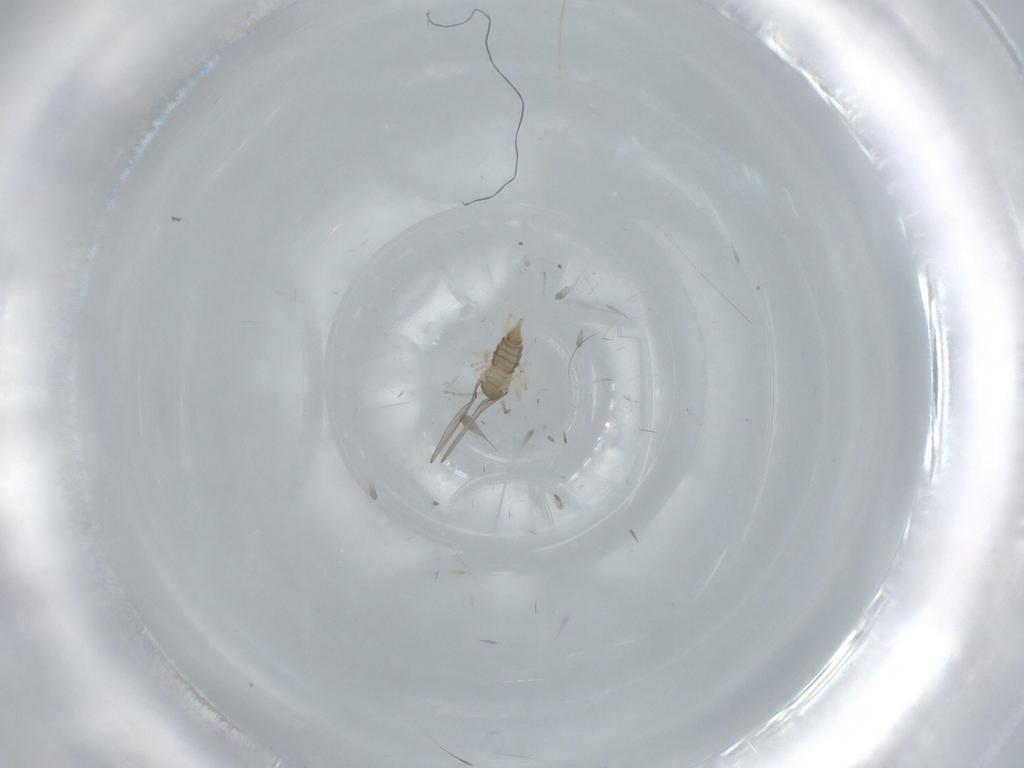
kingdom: Animalia
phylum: Arthropoda
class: Insecta
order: Diptera
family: Cecidomyiidae
